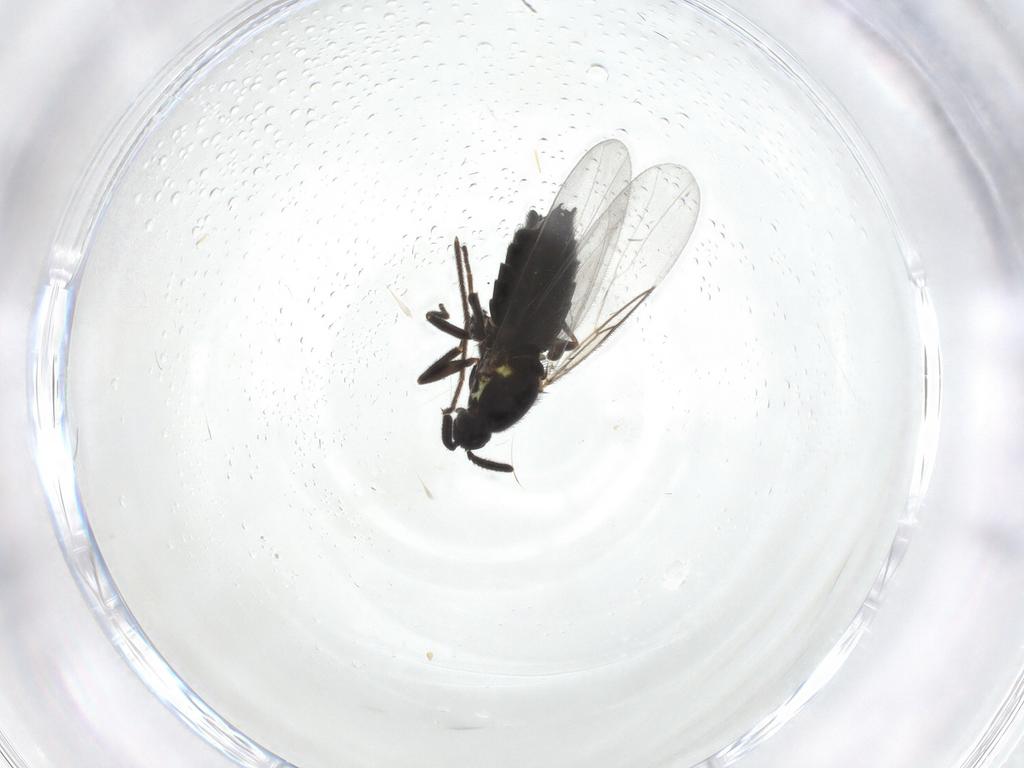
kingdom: Animalia
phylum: Arthropoda
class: Insecta
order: Diptera
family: Scatopsidae
